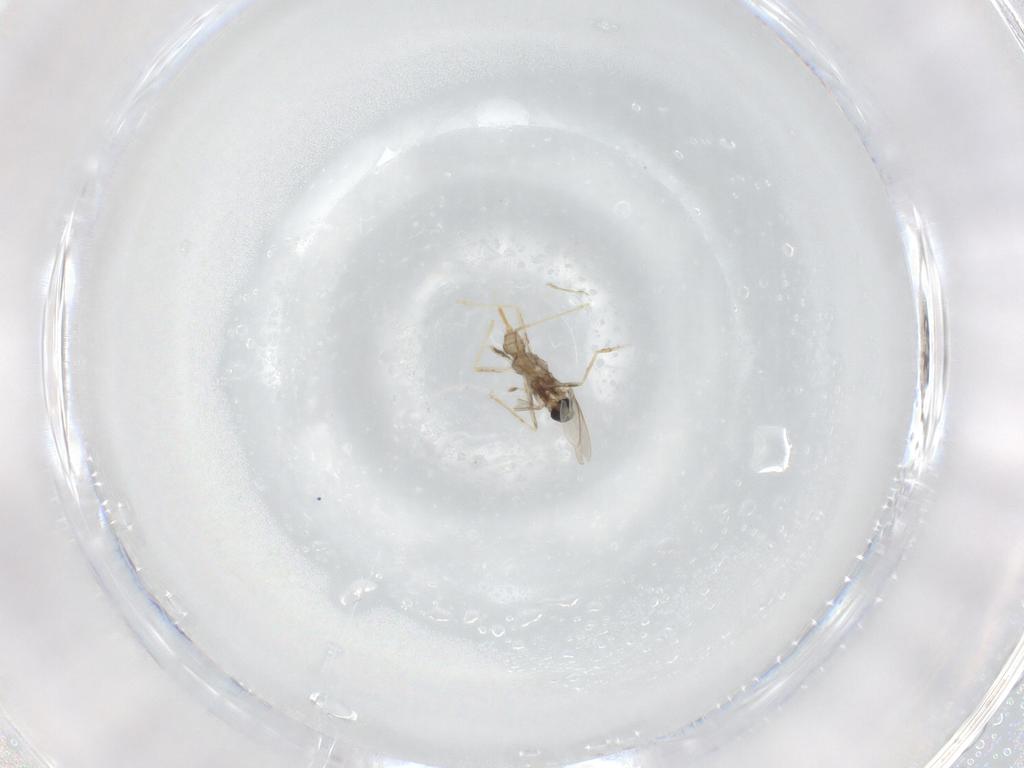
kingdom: Animalia
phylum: Arthropoda
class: Insecta
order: Diptera
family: Cecidomyiidae
